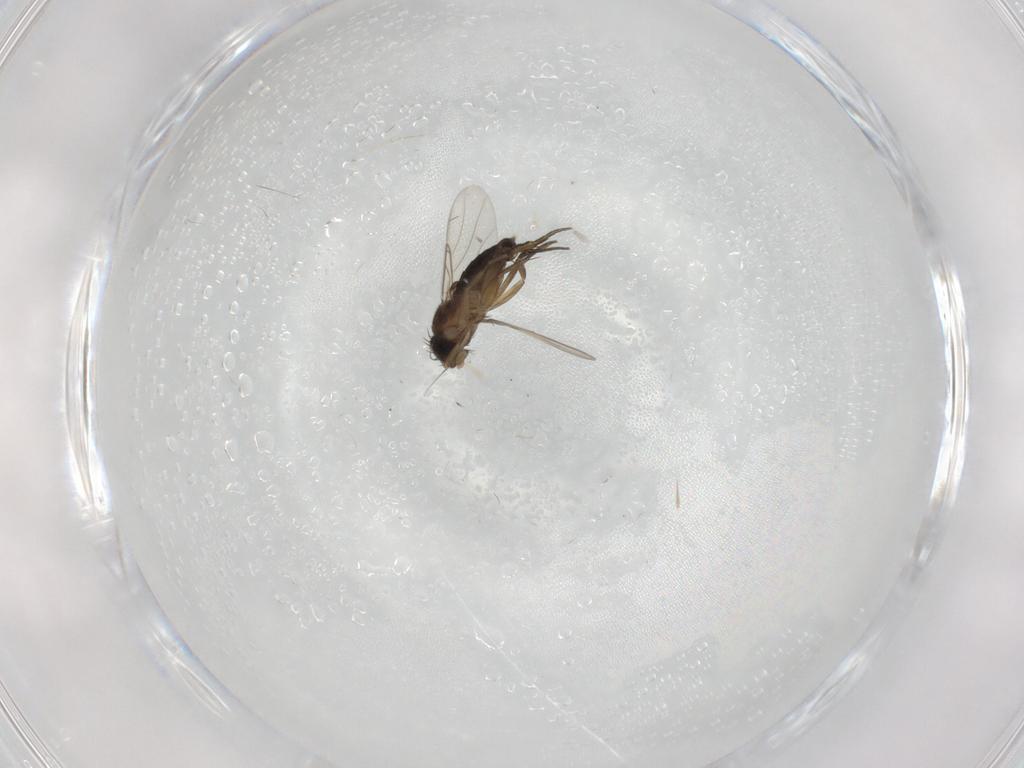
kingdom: Animalia
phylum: Arthropoda
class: Insecta
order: Diptera
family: Phoridae
